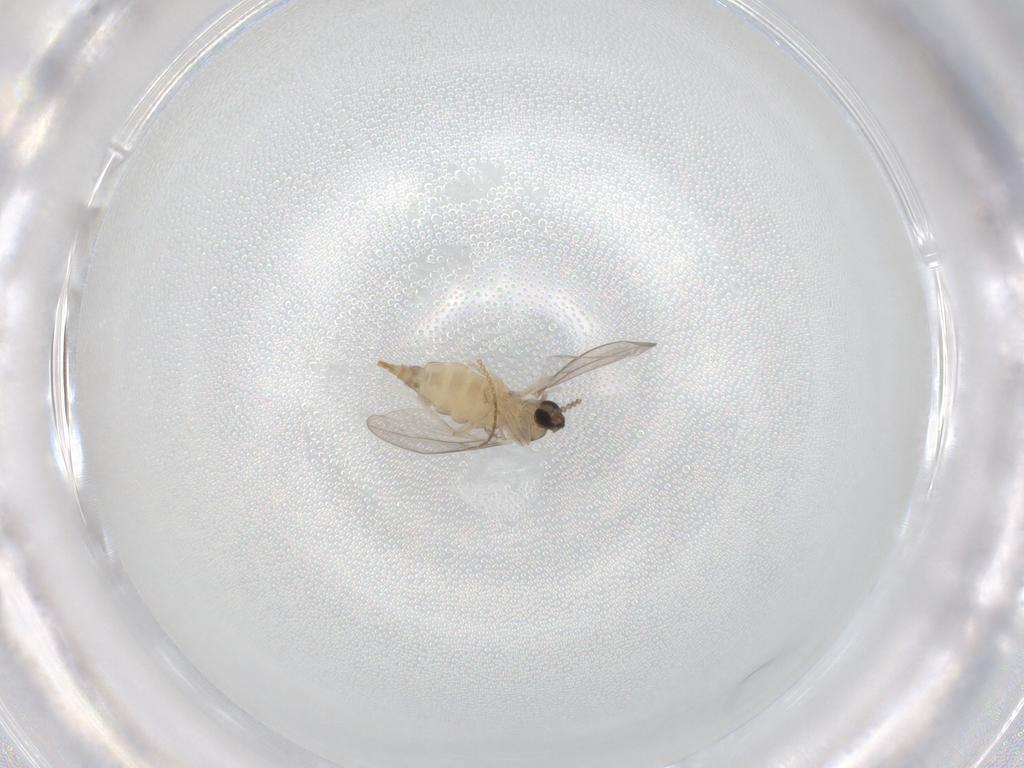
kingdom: Animalia
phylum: Arthropoda
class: Insecta
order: Diptera
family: Cecidomyiidae
